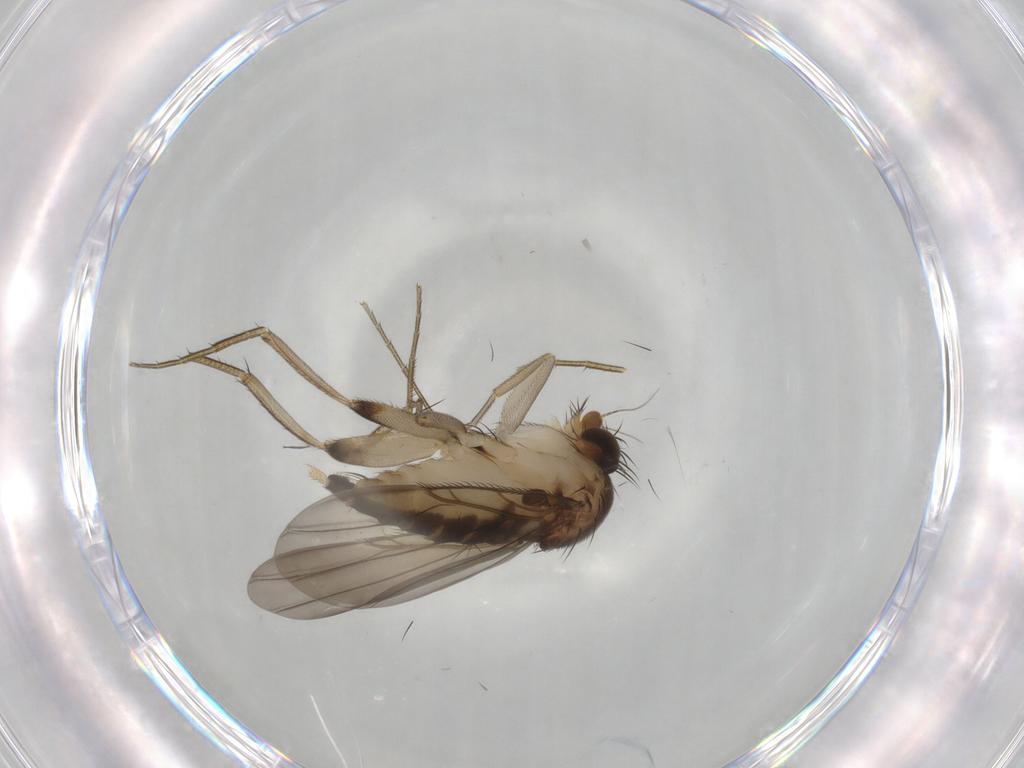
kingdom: Animalia
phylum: Arthropoda
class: Insecta
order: Diptera
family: Phoridae
